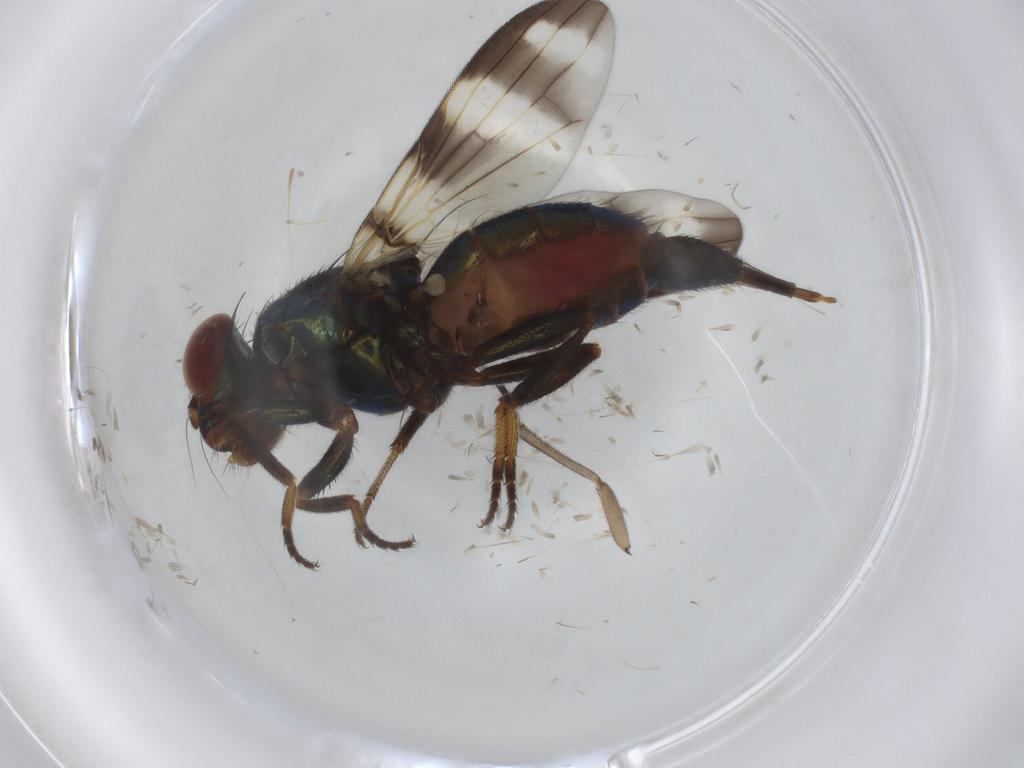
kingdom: Animalia
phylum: Arthropoda
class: Insecta
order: Diptera
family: Ulidiidae
